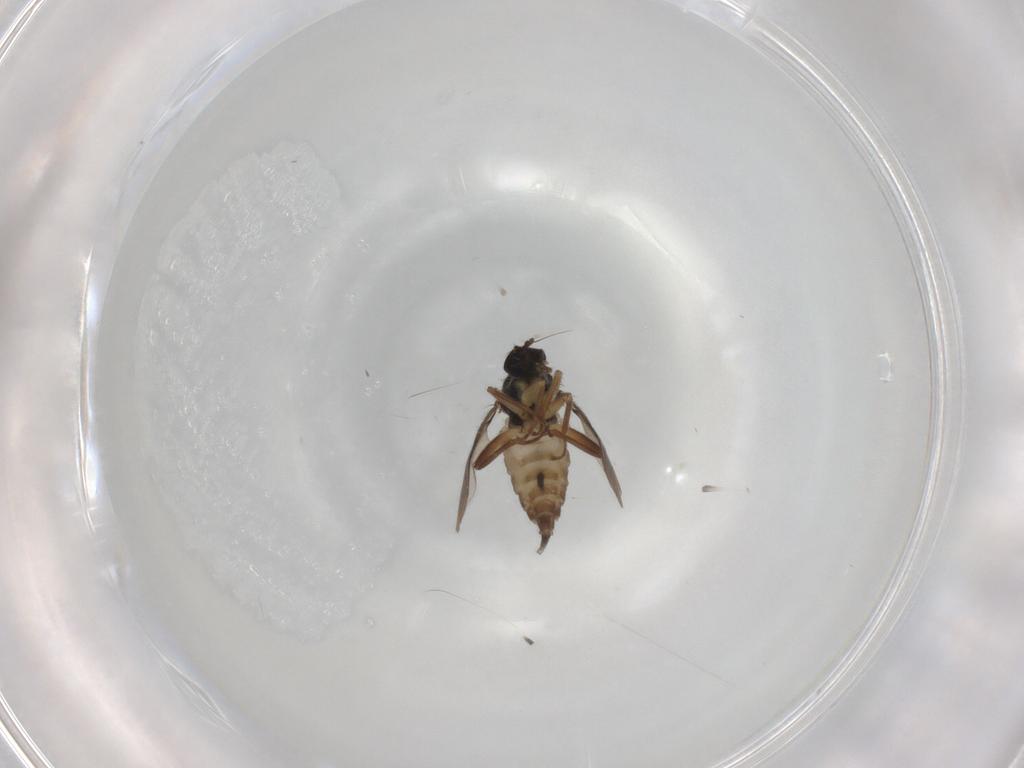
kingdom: Animalia
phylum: Arthropoda
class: Insecta
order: Diptera
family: Hybotidae
